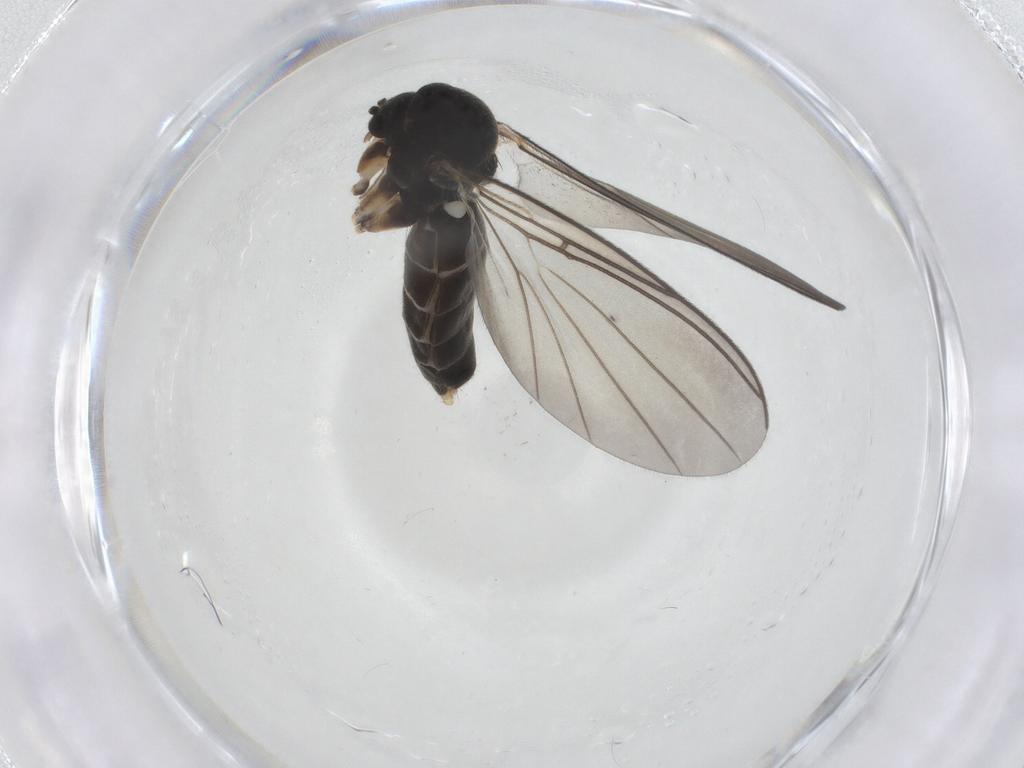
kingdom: Animalia
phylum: Arthropoda
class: Insecta
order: Diptera
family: Mycetophilidae
